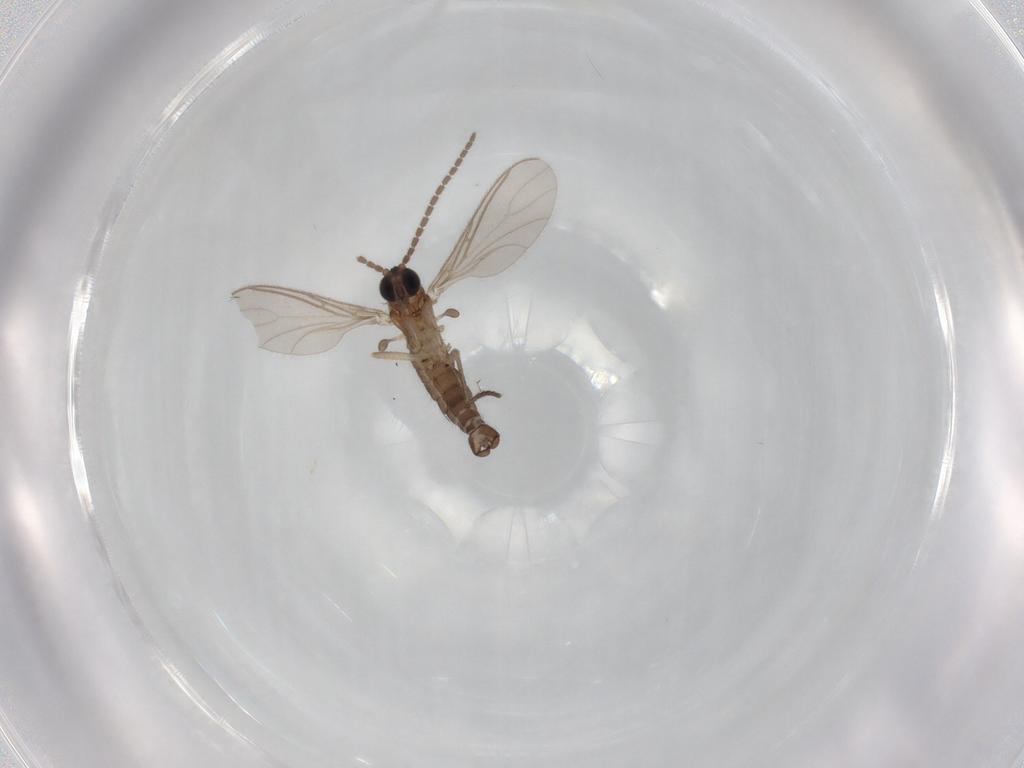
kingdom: Animalia
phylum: Arthropoda
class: Insecta
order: Diptera
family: Sciaridae
